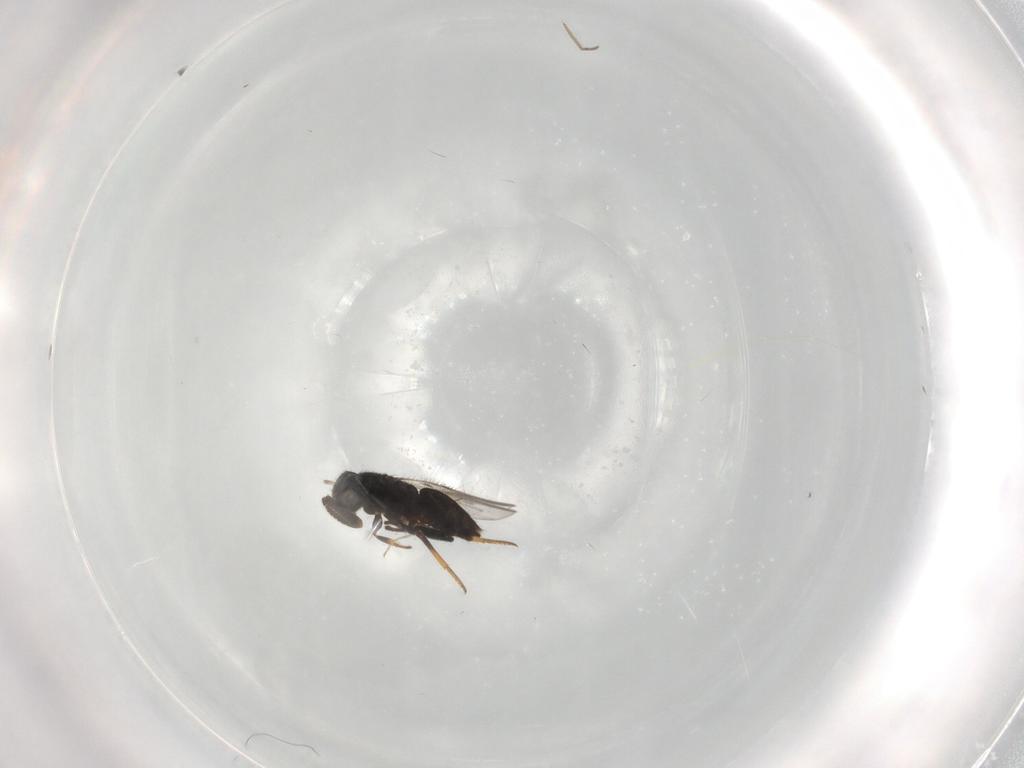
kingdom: Animalia
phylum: Arthropoda
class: Insecta
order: Hymenoptera
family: Encyrtidae
